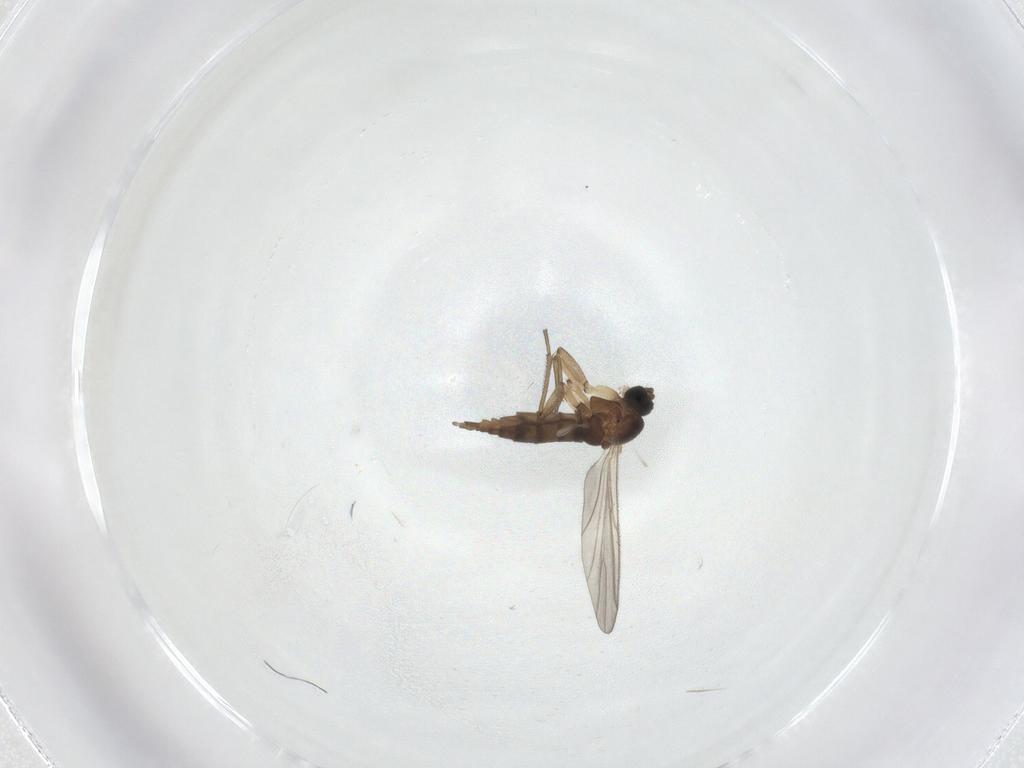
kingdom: Animalia
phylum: Arthropoda
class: Insecta
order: Diptera
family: Sciaridae
